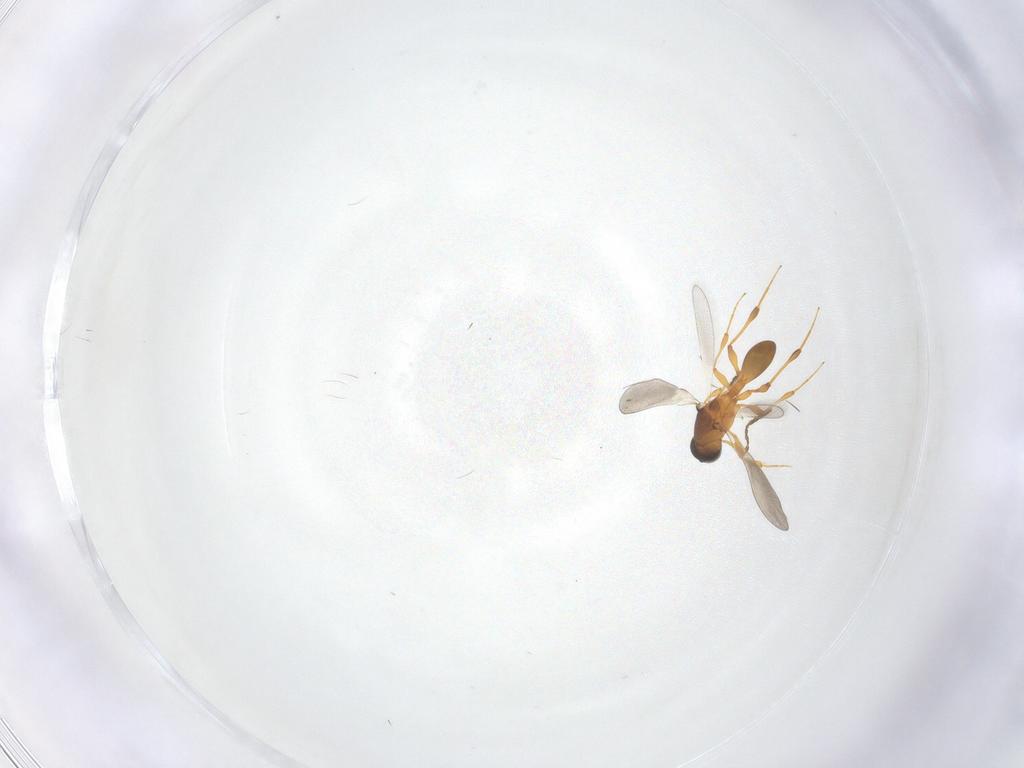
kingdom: Animalia
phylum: Arthropoda
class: Insecta
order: Hymenoptera
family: Platygastridae
